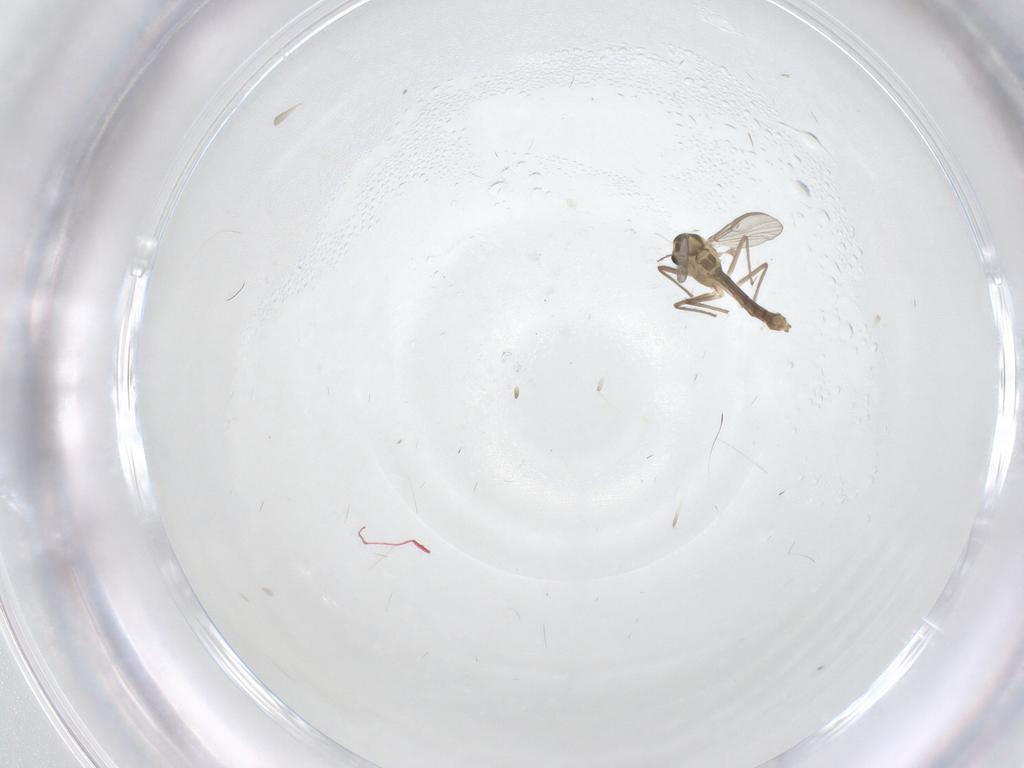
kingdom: Animalia
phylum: Arthropoda
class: Insecta
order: Diptera
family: Chironomidae
